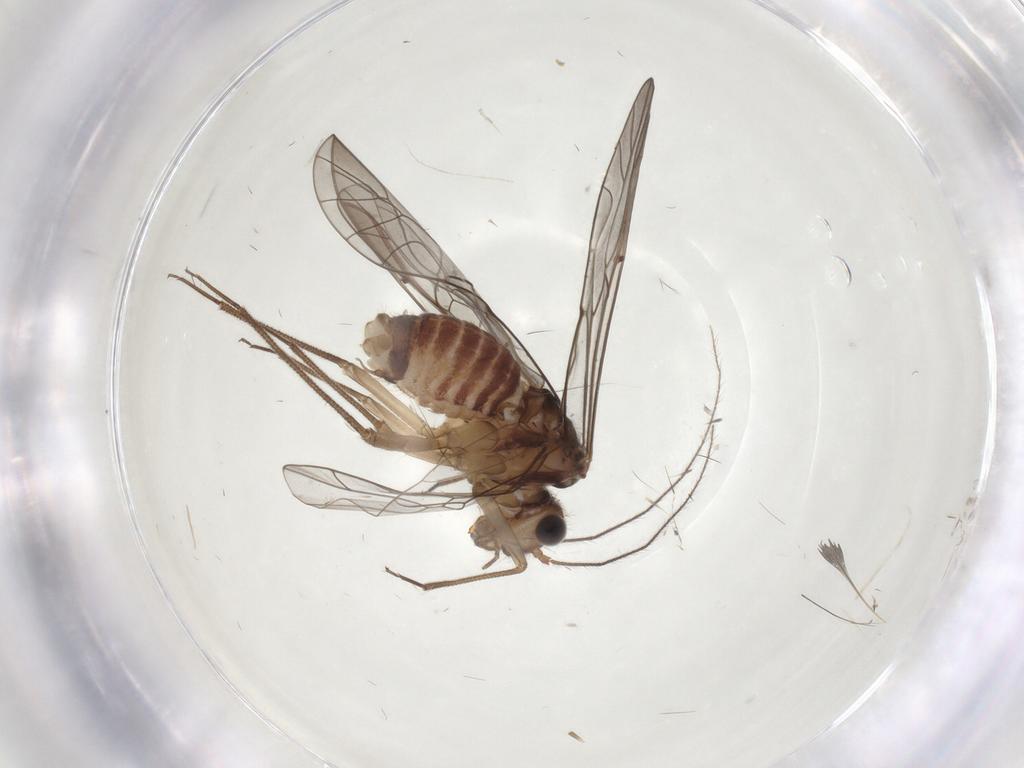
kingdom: Animalia
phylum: Arthropoda
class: Insecta
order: Psocodea
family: Lachesillidae
